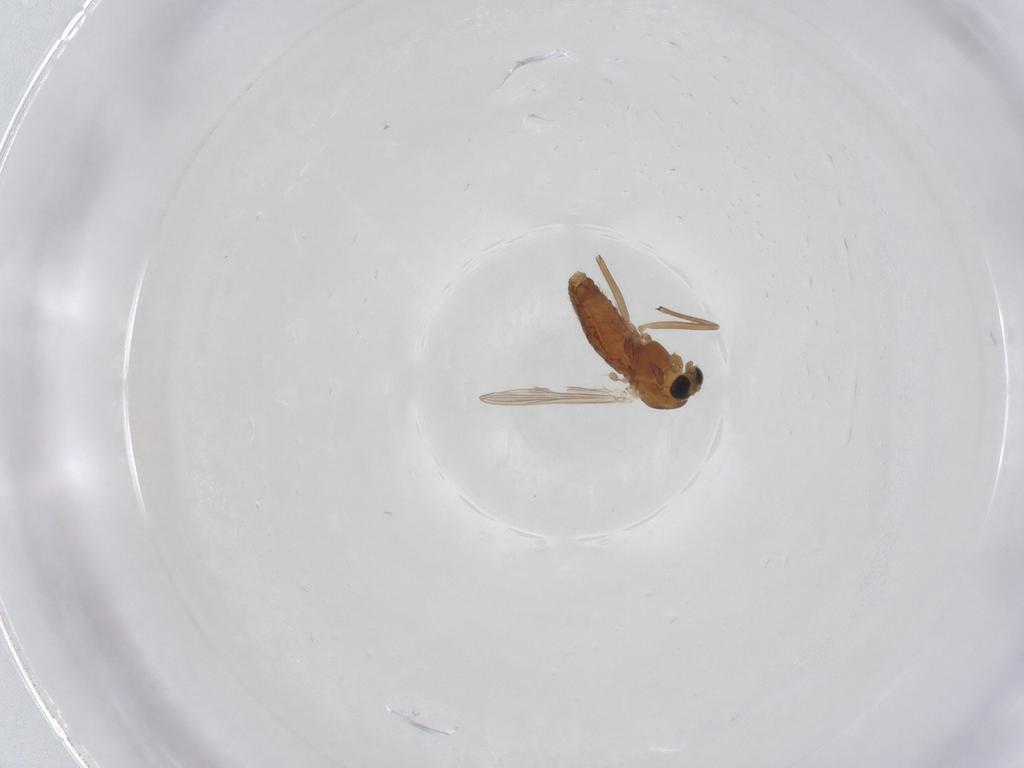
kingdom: Animalia
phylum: Arthropoda
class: Insecta
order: Diptera
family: Chironomidae
